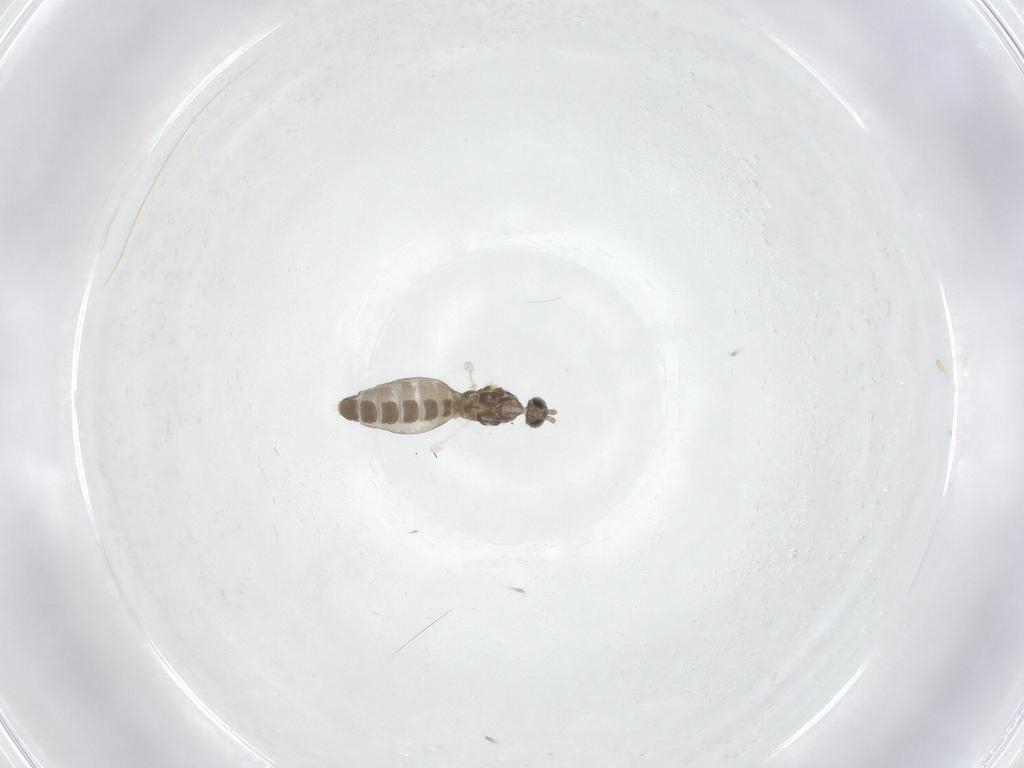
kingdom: Animalia
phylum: Arthropoda
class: Insecta
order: Diptera
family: Cecidomyiidae
